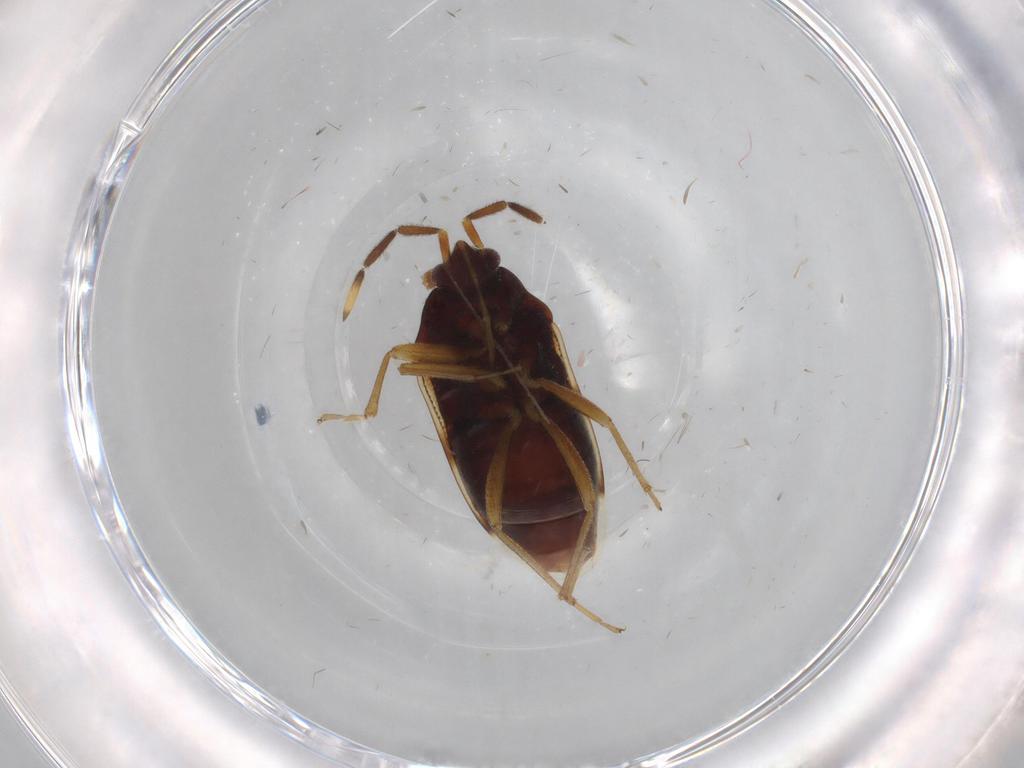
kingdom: Animalia
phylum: Arthropoda
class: Insecta
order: Hemiptera
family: Rhyparochromidae
